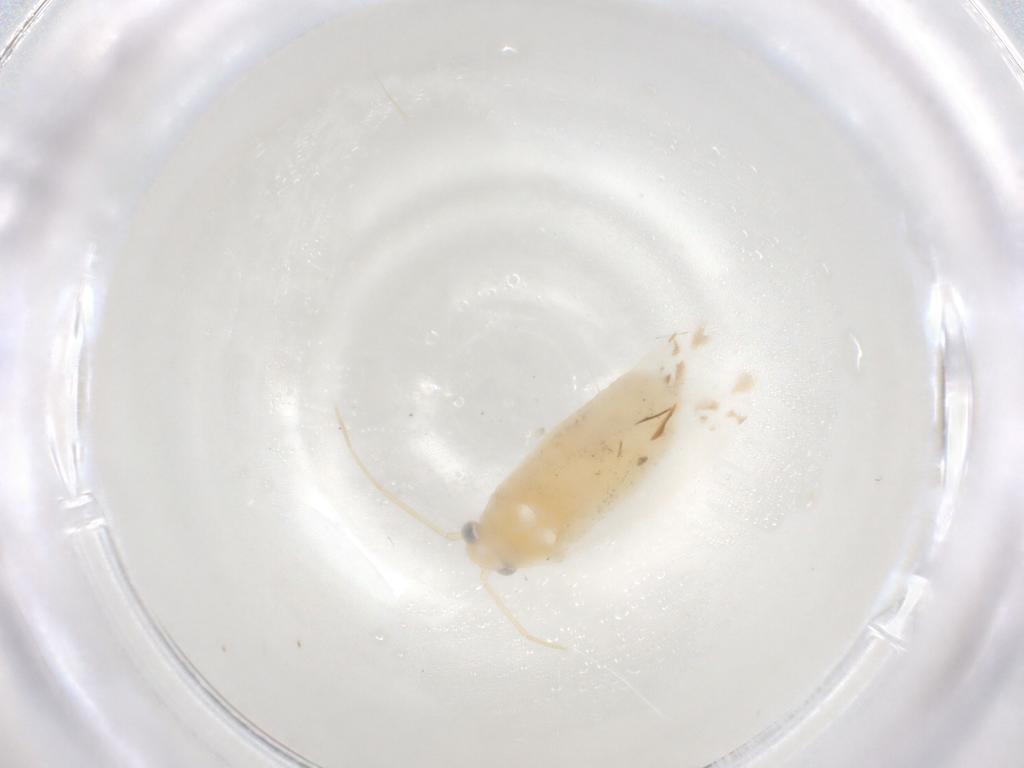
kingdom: Animalia
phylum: Arthropoda
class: Insecta
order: Hemiptera
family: Miridae
